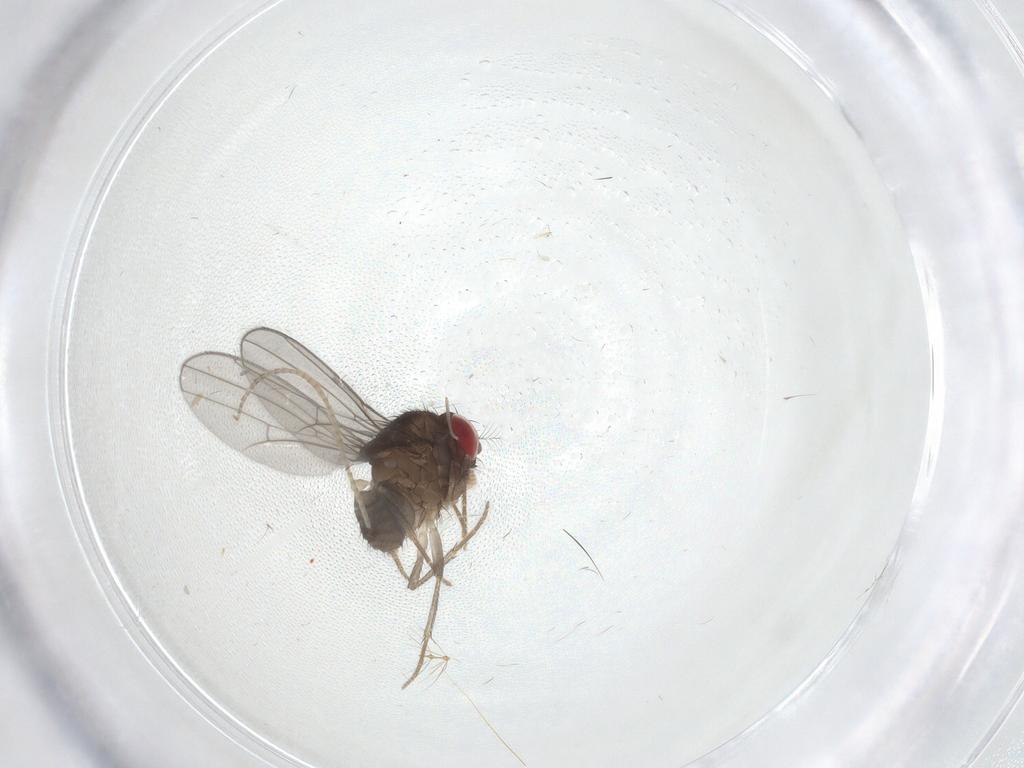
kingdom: Animalia
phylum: Arthropoda
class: Insecta
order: Diptera
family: Drosophilidae
